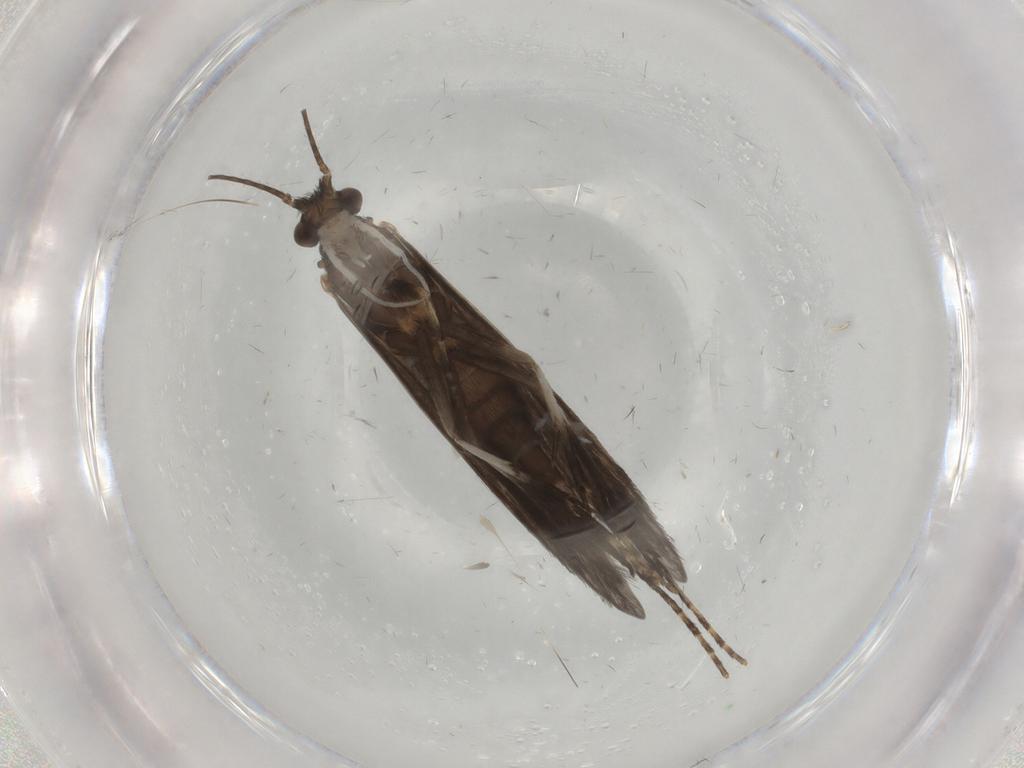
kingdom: Animalia
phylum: Arthropoda
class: Insecta
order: Trichoptera
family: Xiphocentronidae
